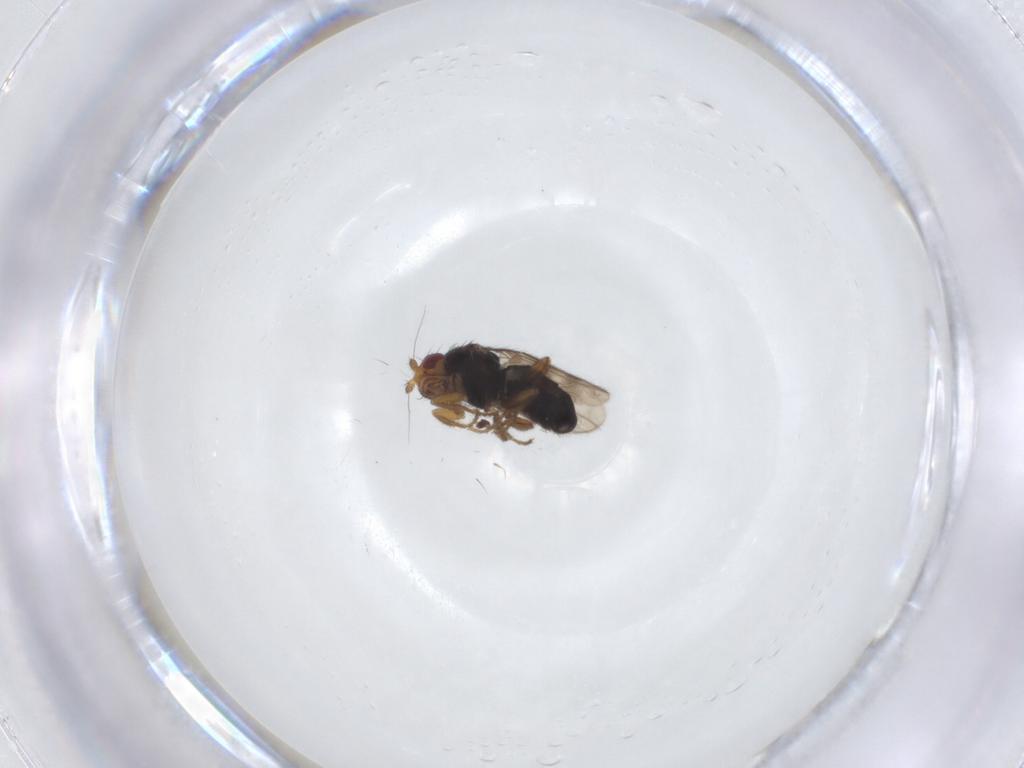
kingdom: Animalia
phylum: Arthropoda
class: Insecta
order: Diptera
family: Sphaeroceridae
